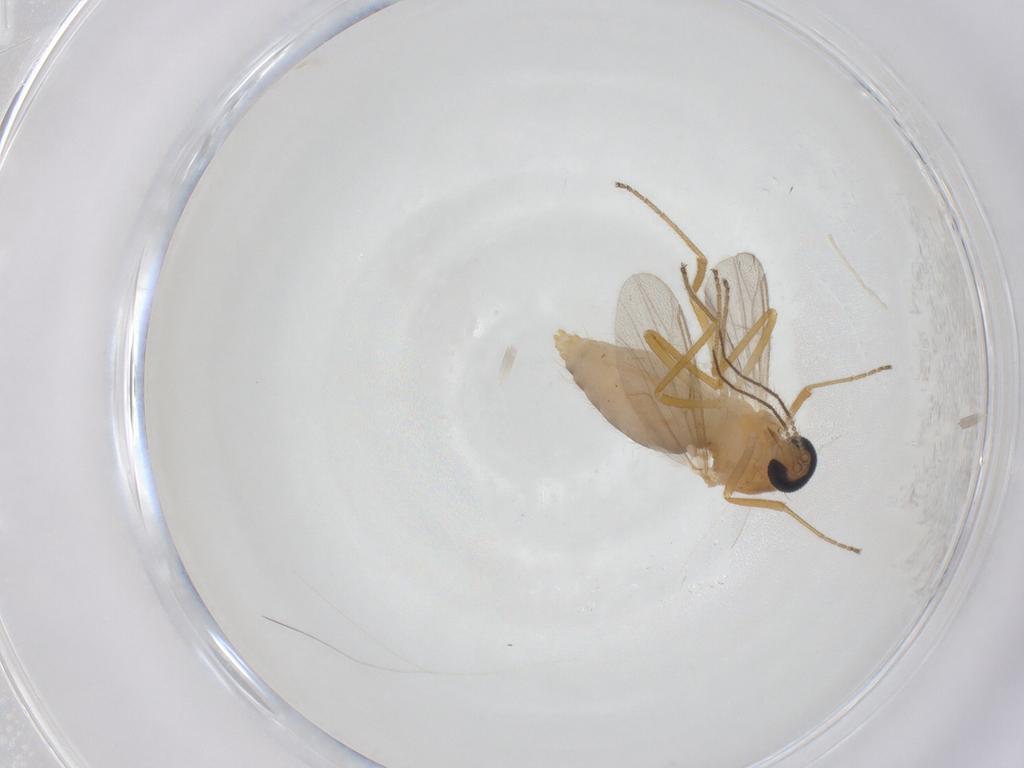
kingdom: Animalia
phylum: Arthropoda
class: Insecta
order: Diptera
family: Ceratopogonidae
